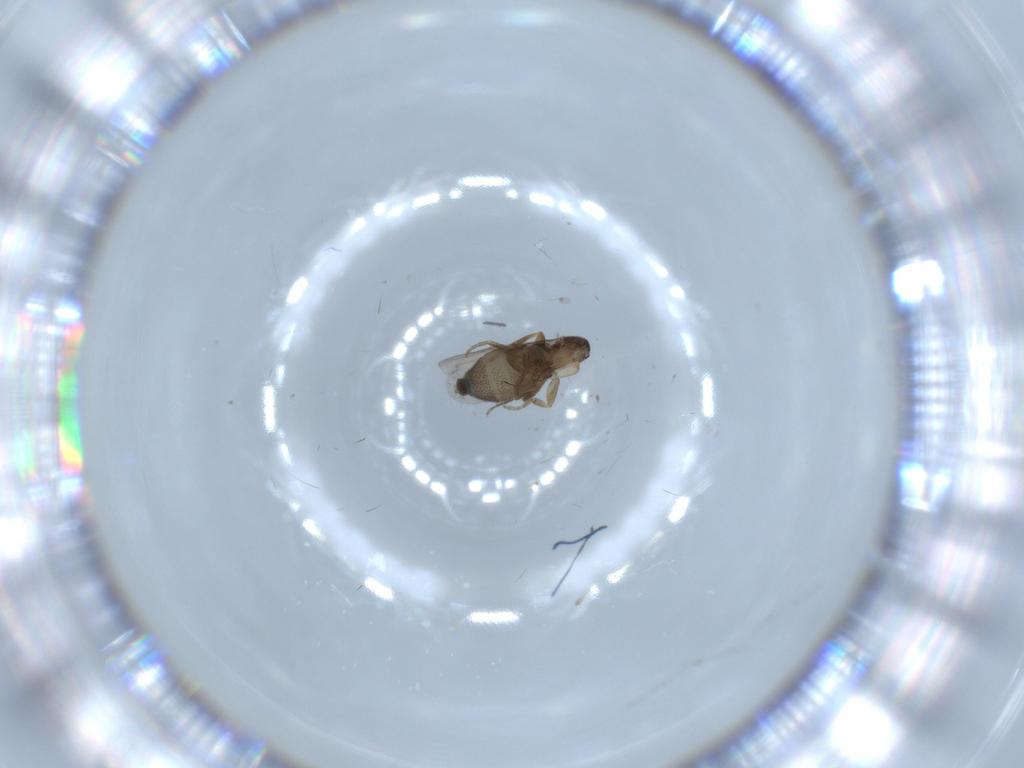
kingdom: Animalia
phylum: Arthropoda
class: Insecta
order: Diptera
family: Phoridae
